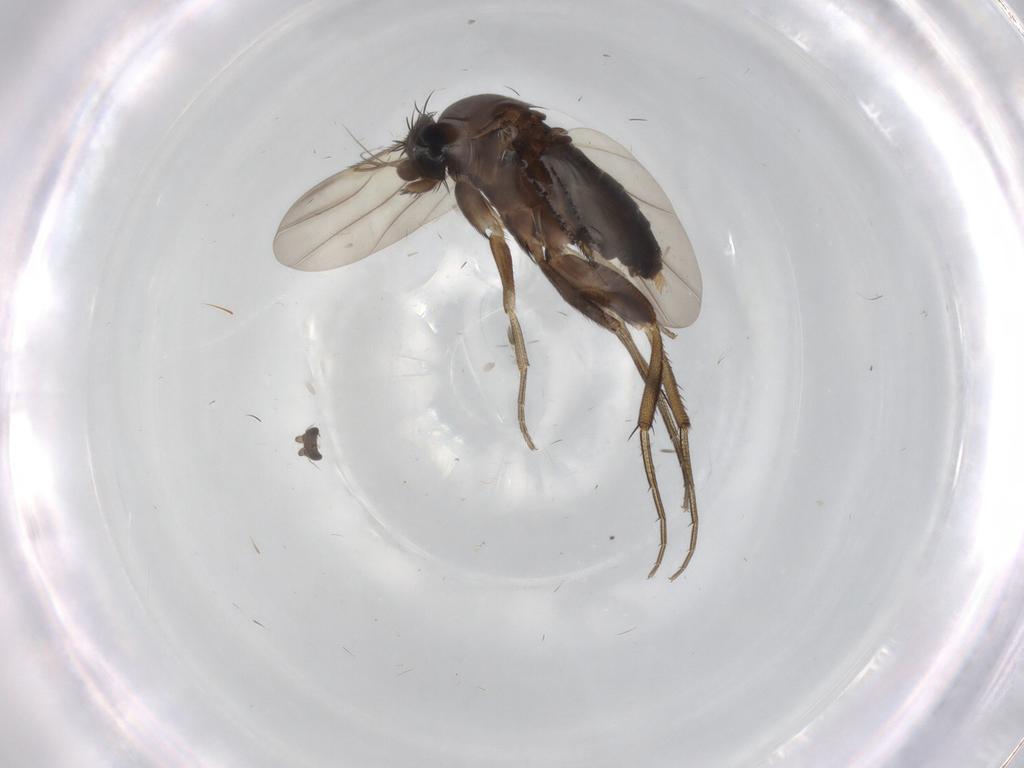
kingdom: Animalia
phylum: Arthropoda
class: Insecta
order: Diptera
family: Phoridae
